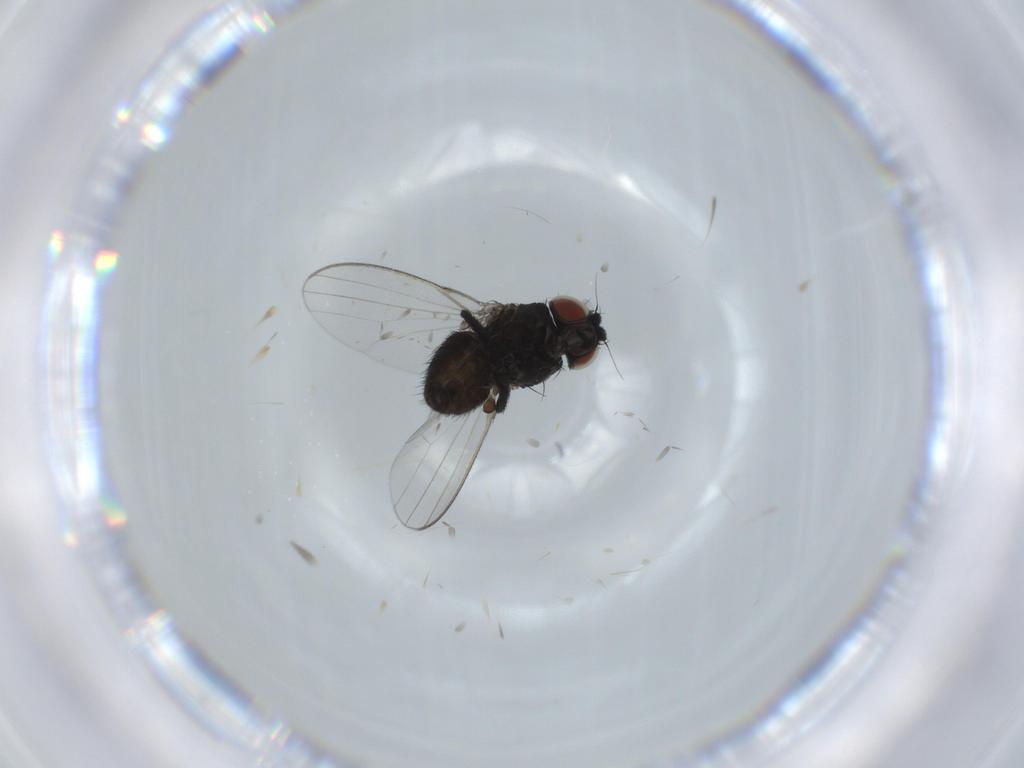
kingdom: Animalia
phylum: Arthropoda
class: Insecta
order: Diptera
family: Milichiidae
